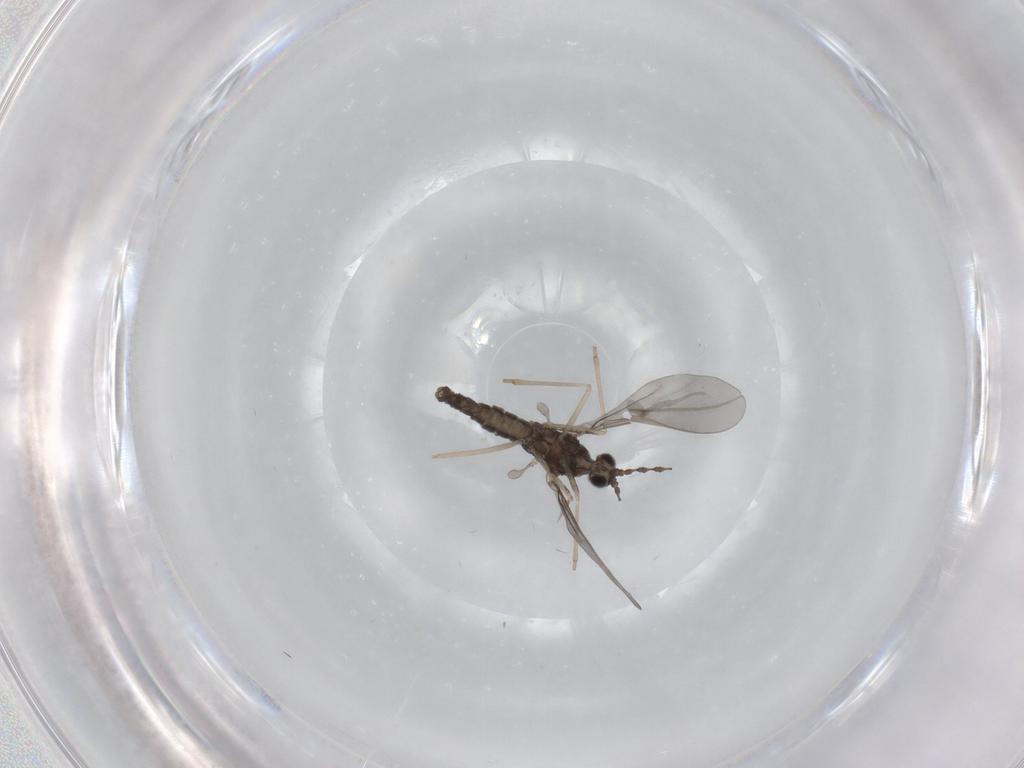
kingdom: Animalia
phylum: Arthropoda
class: Insecta
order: Diptera
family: Cecidomyiidae
